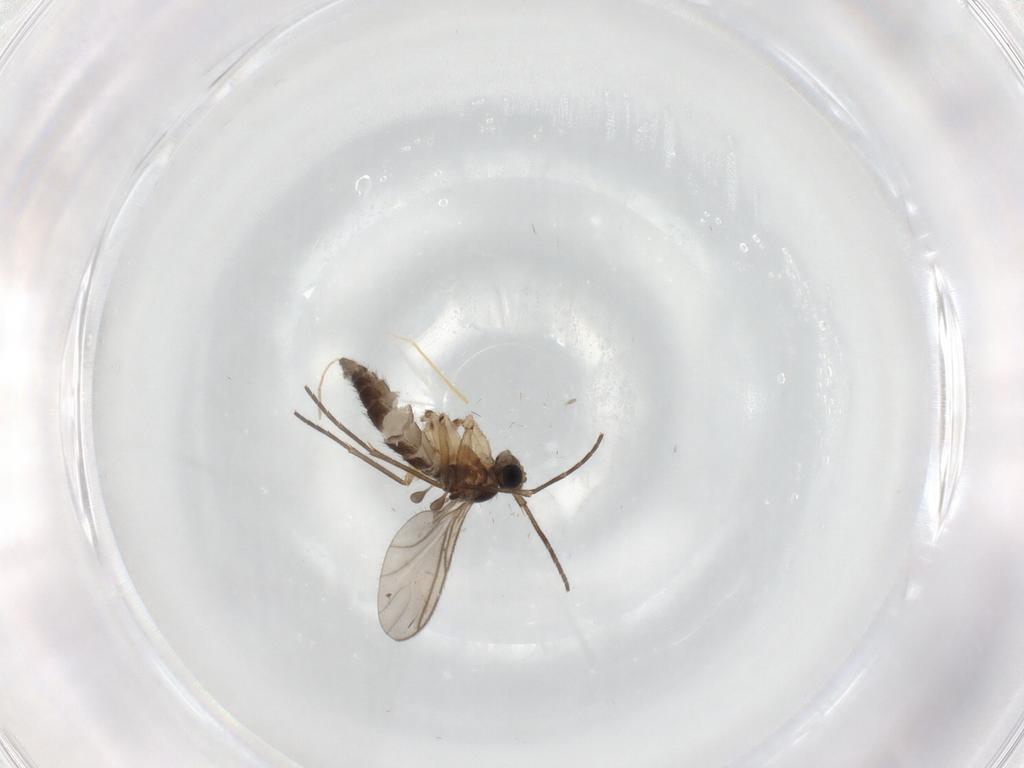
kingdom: Animalia
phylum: Arthropoda
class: Insecta
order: Diptera
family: Sciaridae
